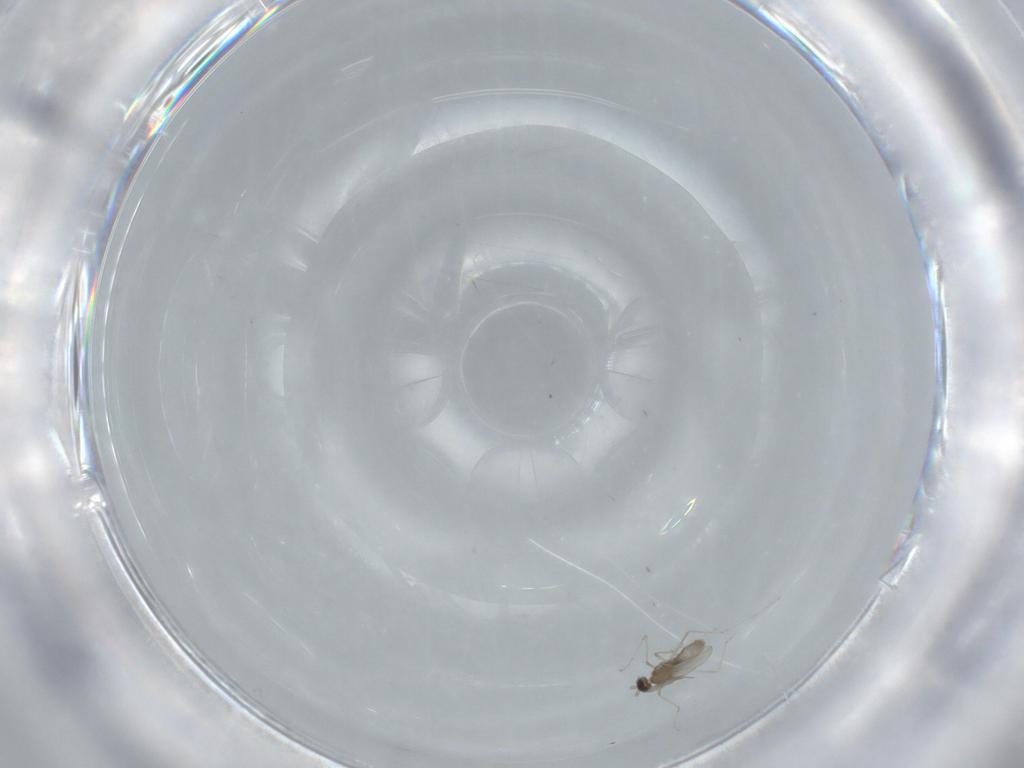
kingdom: Animalia
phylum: Arthropoda
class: Insecta
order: Diptera
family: Cecidomyiidae
